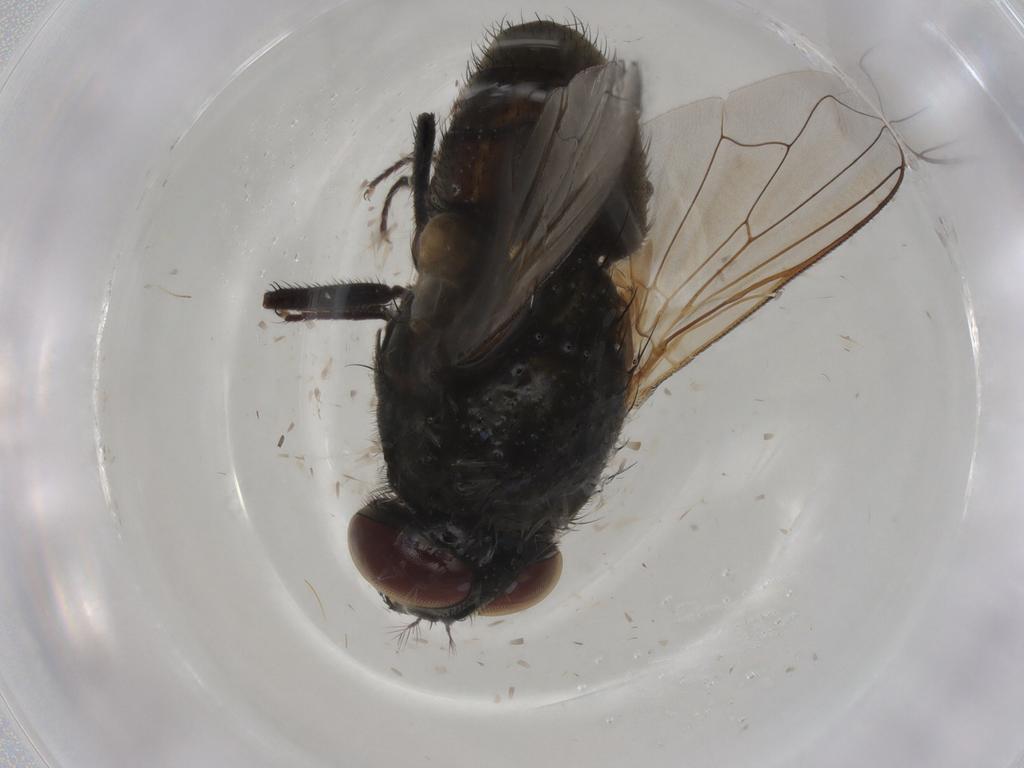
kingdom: Animalia
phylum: Arthropoda
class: Insecta
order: Diptera
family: Muscidae
